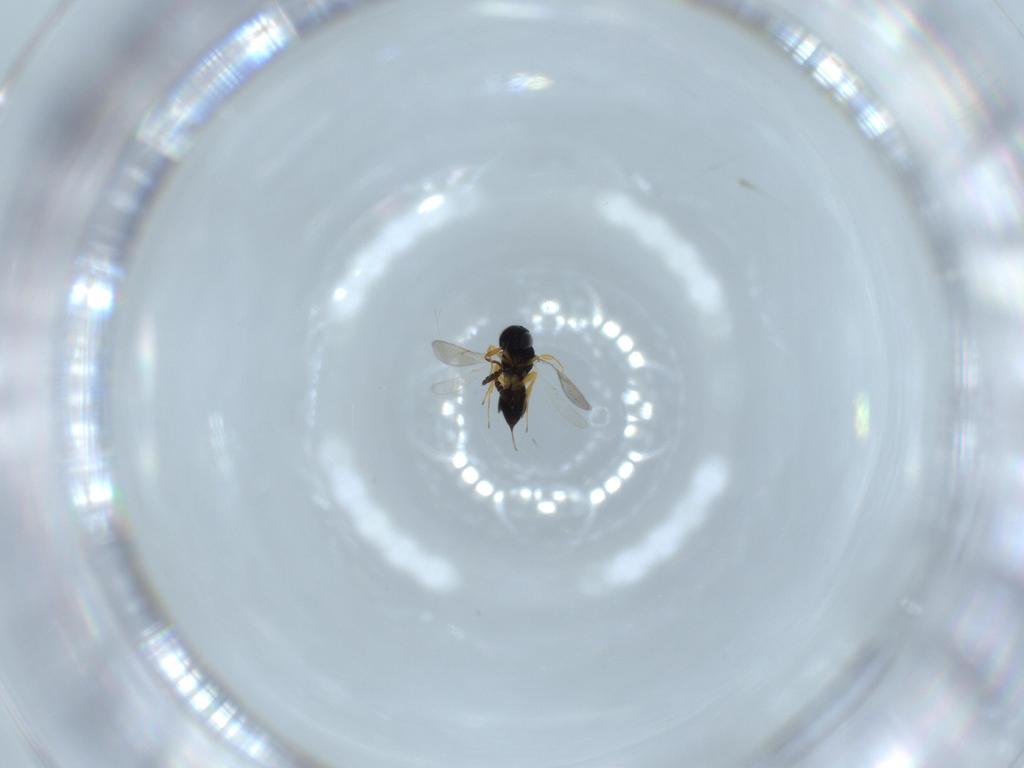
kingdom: Animalia
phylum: Arthropoda
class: Insecta
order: Hymenoptera
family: Scelionidae
